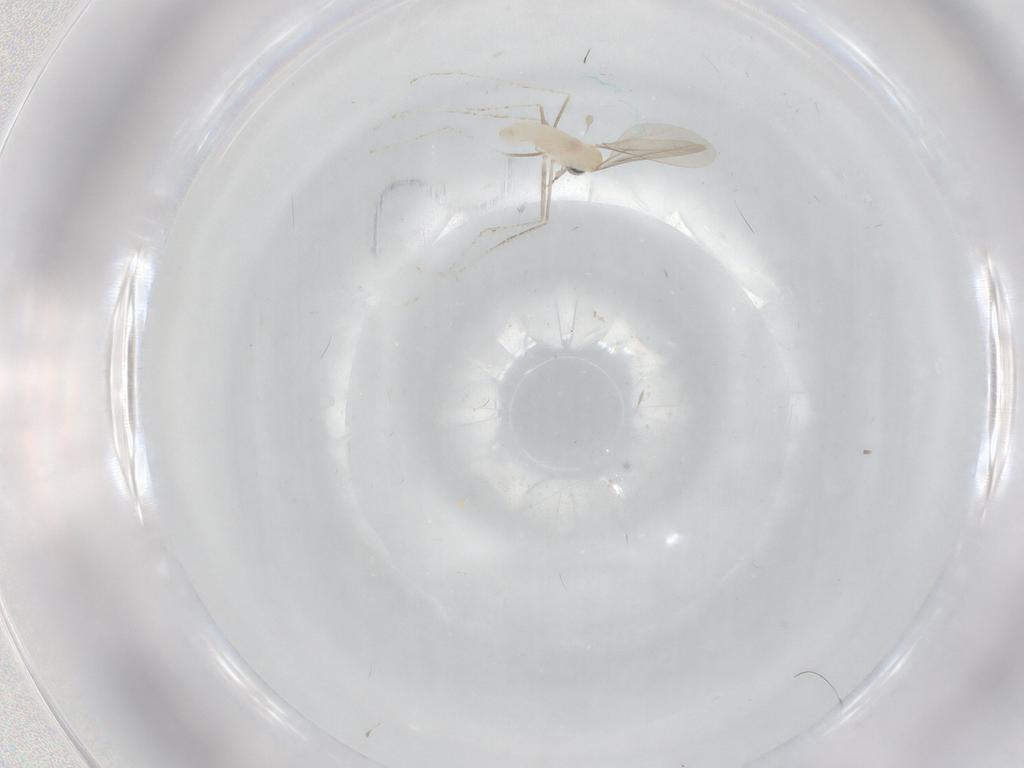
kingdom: Animalia
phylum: Arthropoda
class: Insecta
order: Diptera
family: Cecidomyiidae
